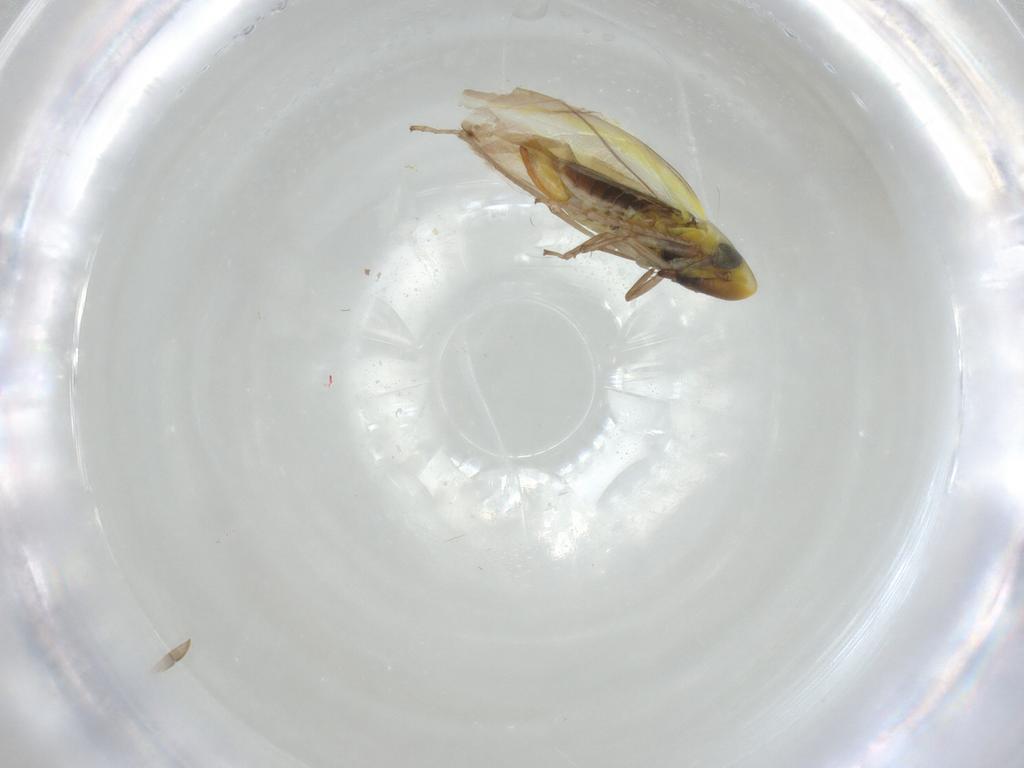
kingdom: Animalia
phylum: Arthropoda
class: Insecta
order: Hemiptera
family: Cicadellidae
